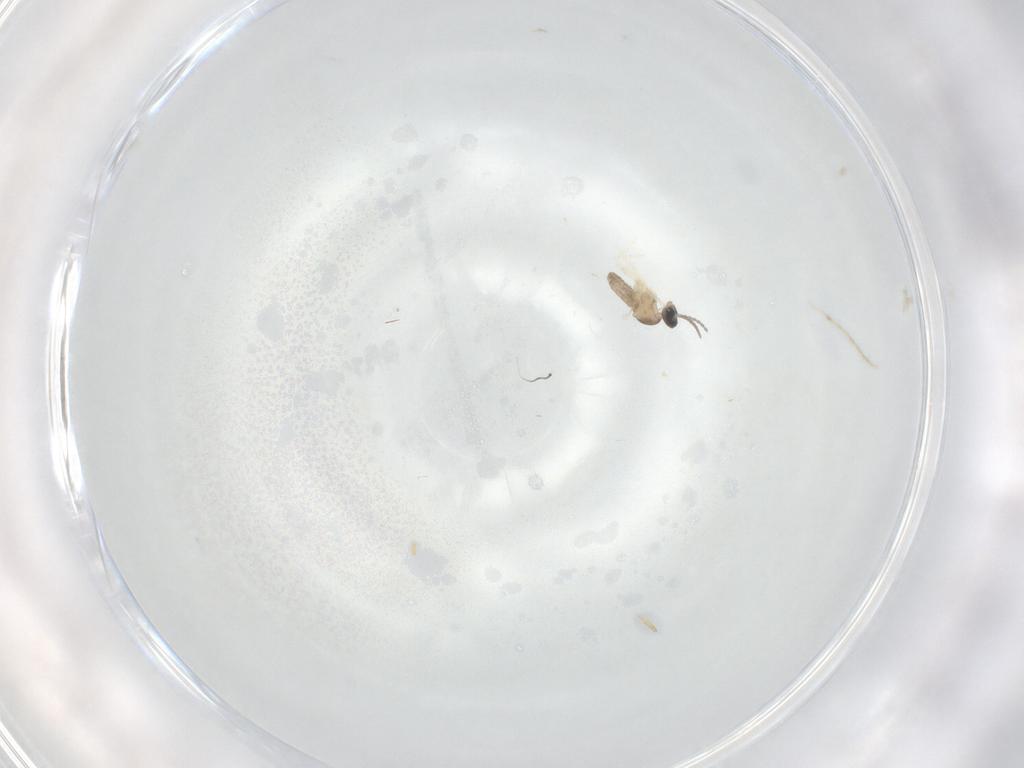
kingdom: Animalia
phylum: Arthropoda
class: Insecta
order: Diptera
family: Cecidomyiidae
